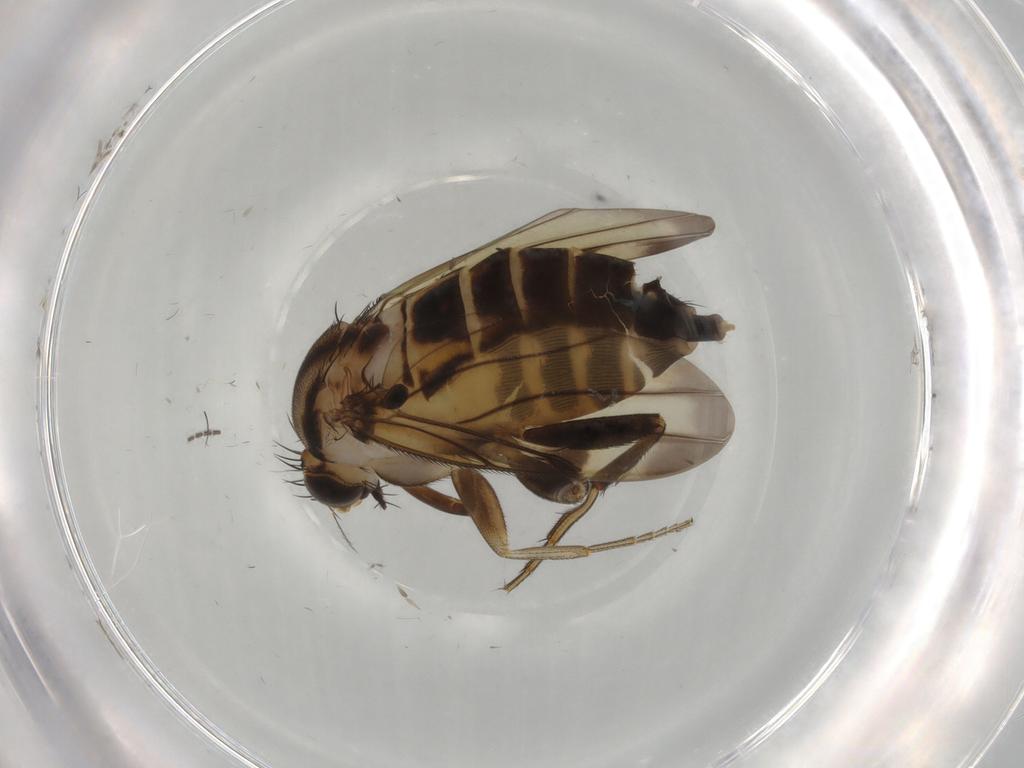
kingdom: Animalia
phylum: Arthropoda
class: Insecta
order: Diptera
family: Phoridae
